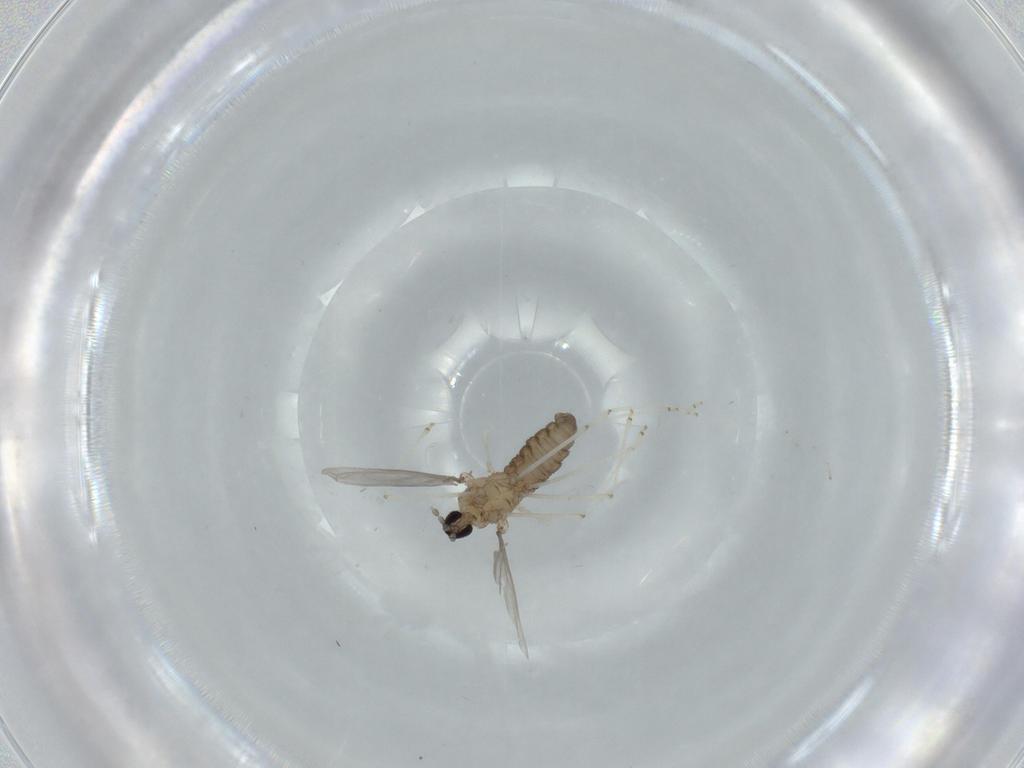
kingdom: Animalia
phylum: Arthropoda
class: Insecta
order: Diptera
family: Cecidomyiidae
